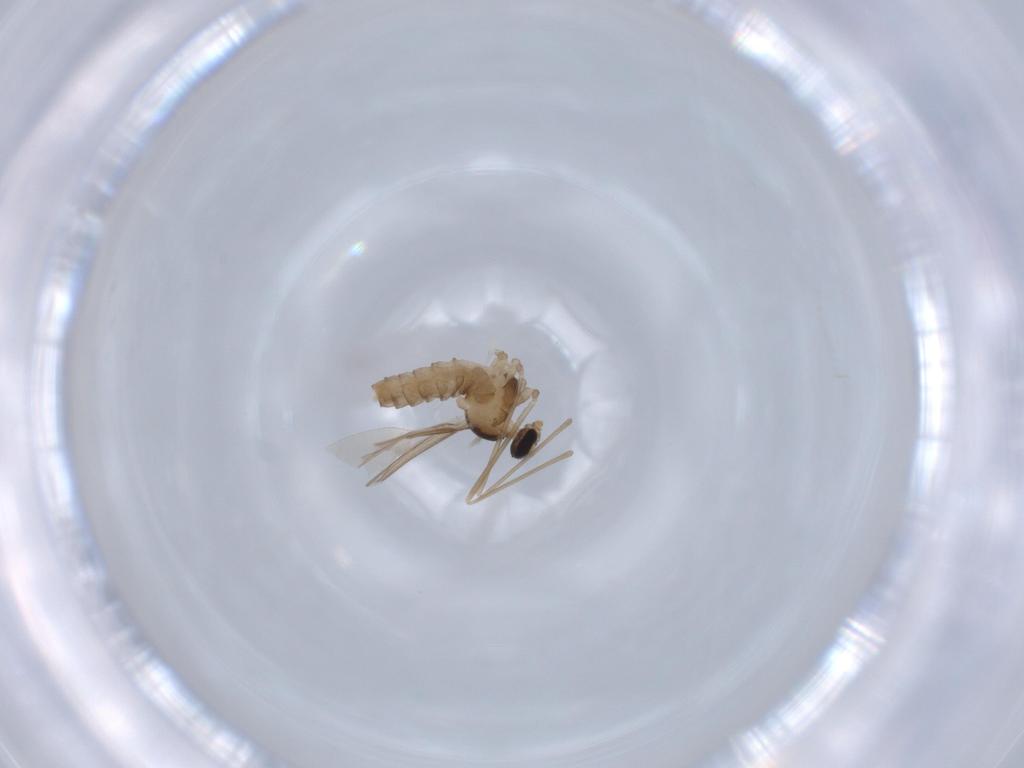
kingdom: Animalia
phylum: Arthropoda
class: Insecta
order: Diptera
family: Cecidomyiidae
